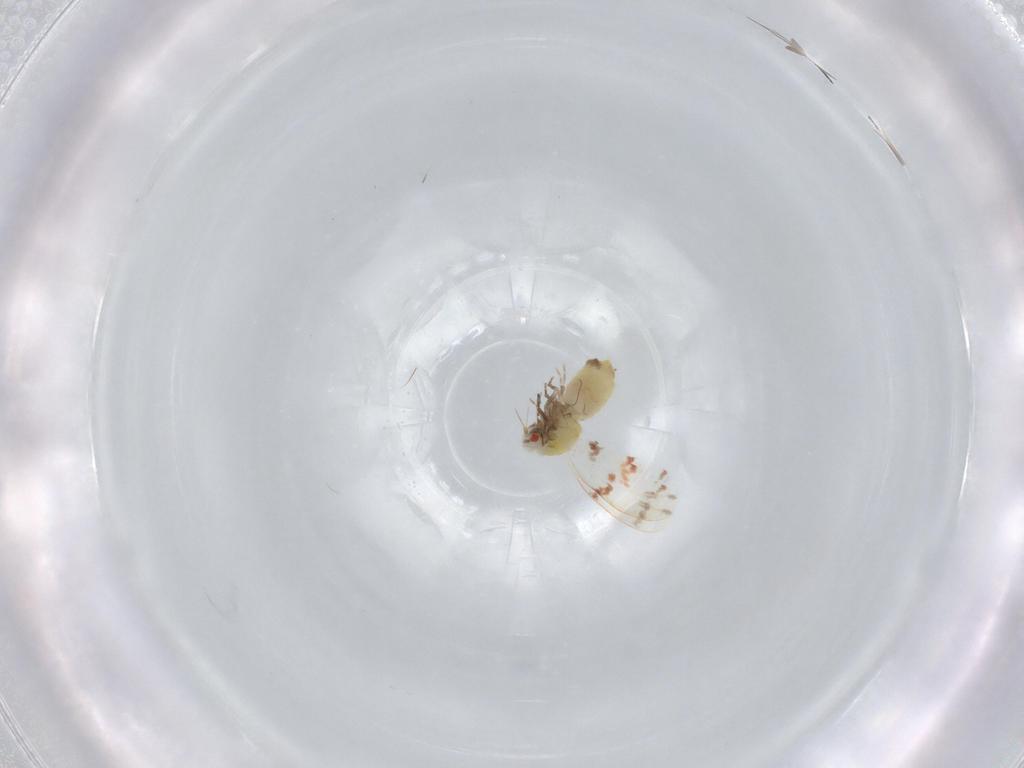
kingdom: Animalia
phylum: Arthropoda
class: Insecta
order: Hemiptera
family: Aleyrodidae
